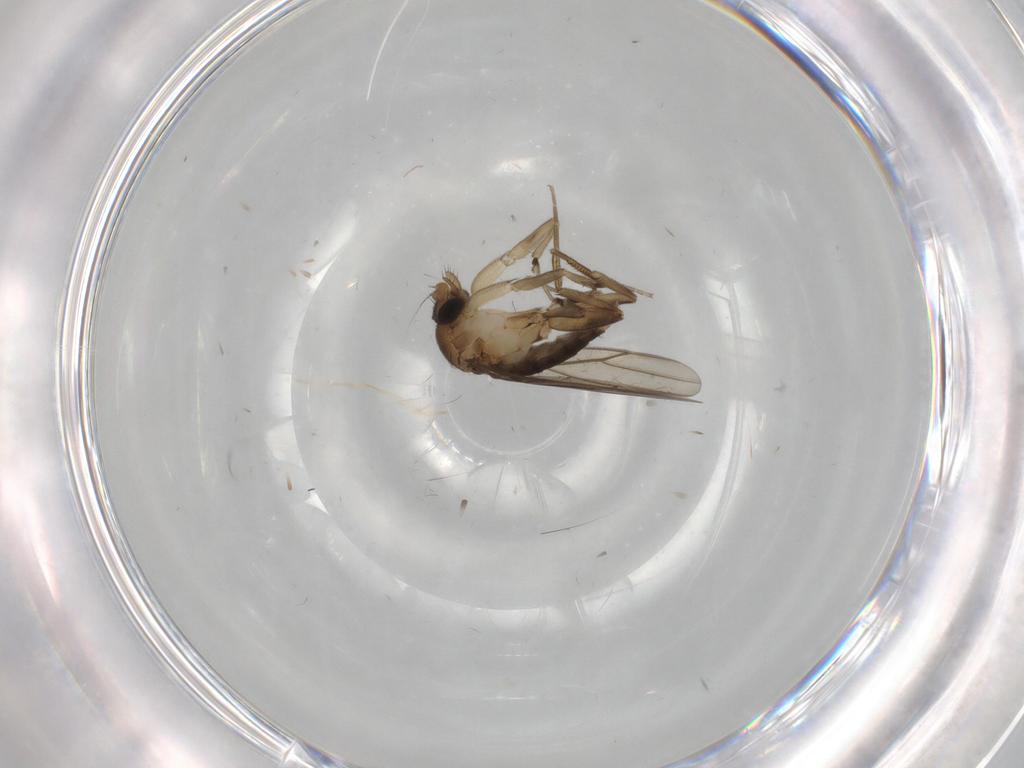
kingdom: Animalia
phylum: Arthropoda
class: Insecta
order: Diptera
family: Phoridae
